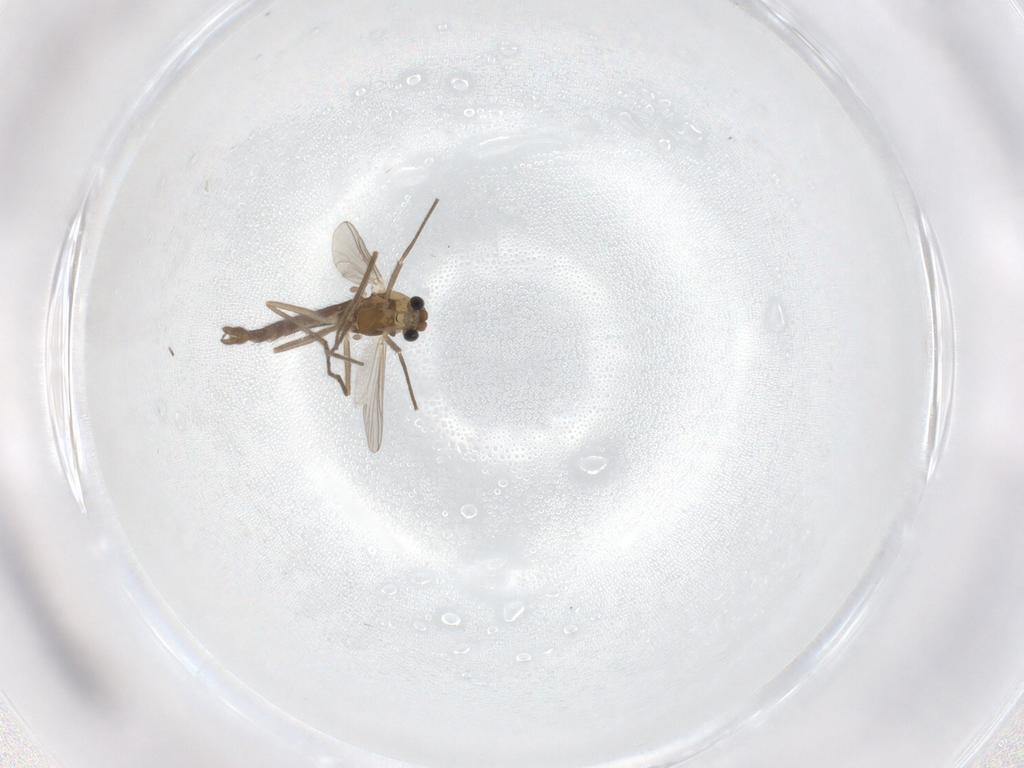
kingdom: Animalia
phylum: Arthropoda
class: Insecta
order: Diptera
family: Chironomidae
